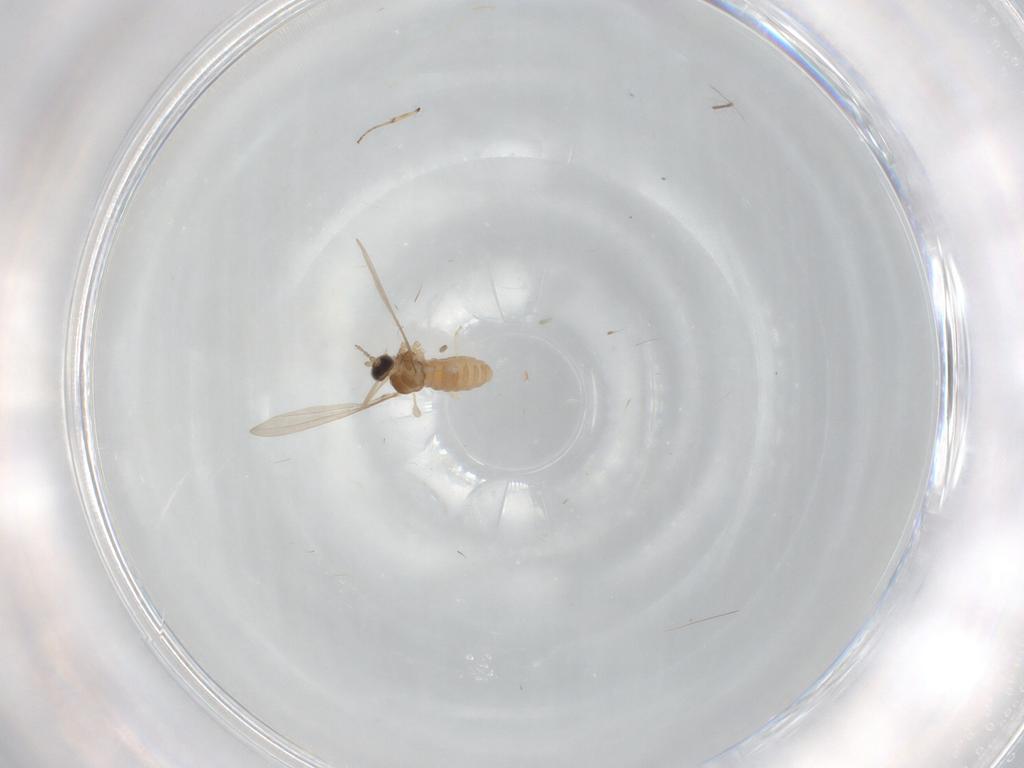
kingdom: Animalia
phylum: Arthropoda
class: Insecta
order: Diptera
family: Cecidomyiidae
